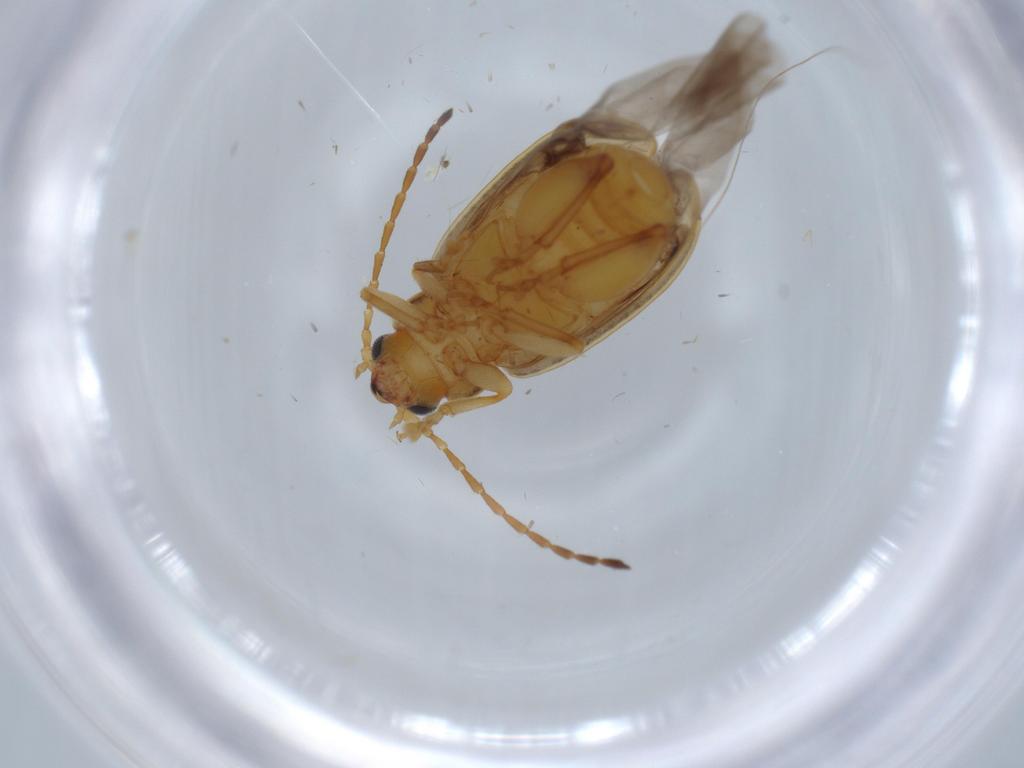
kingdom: Animalia
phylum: Arthropoda
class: Insecta
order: Coleoptera
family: Chrysomelidae
